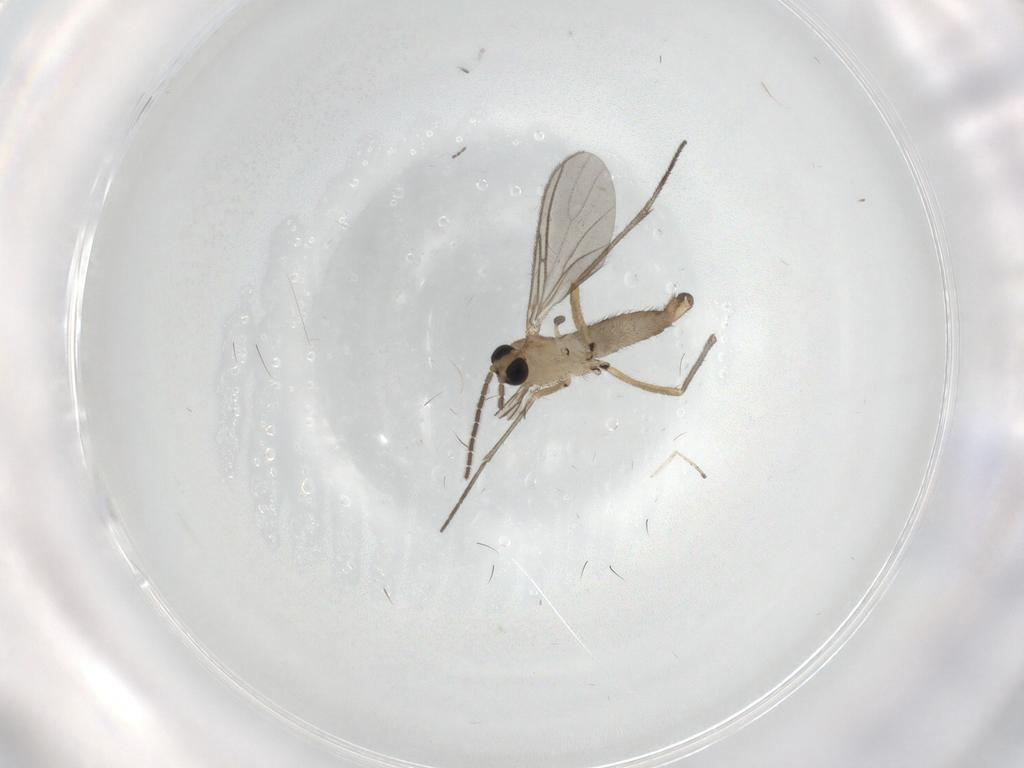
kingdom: Animalia
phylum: Arthropoda
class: Insecta
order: Diptera
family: Sciaridae
